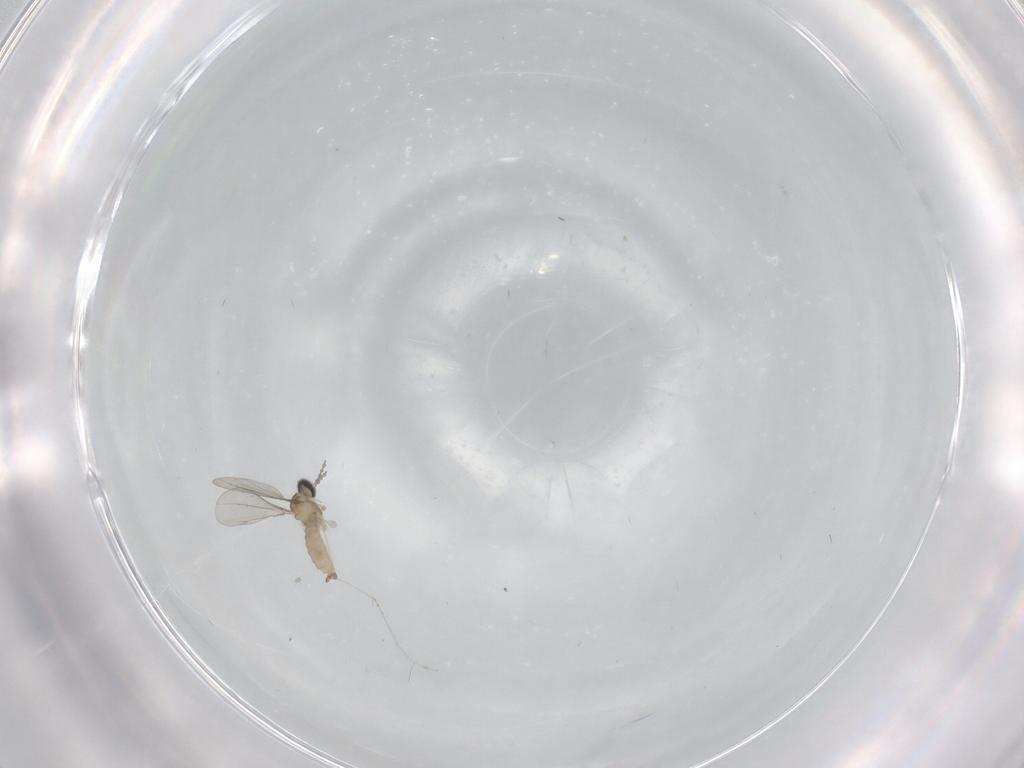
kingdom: Animalia
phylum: Arthropoda
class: Insecta
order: Diptera
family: Cecidomyiidae
